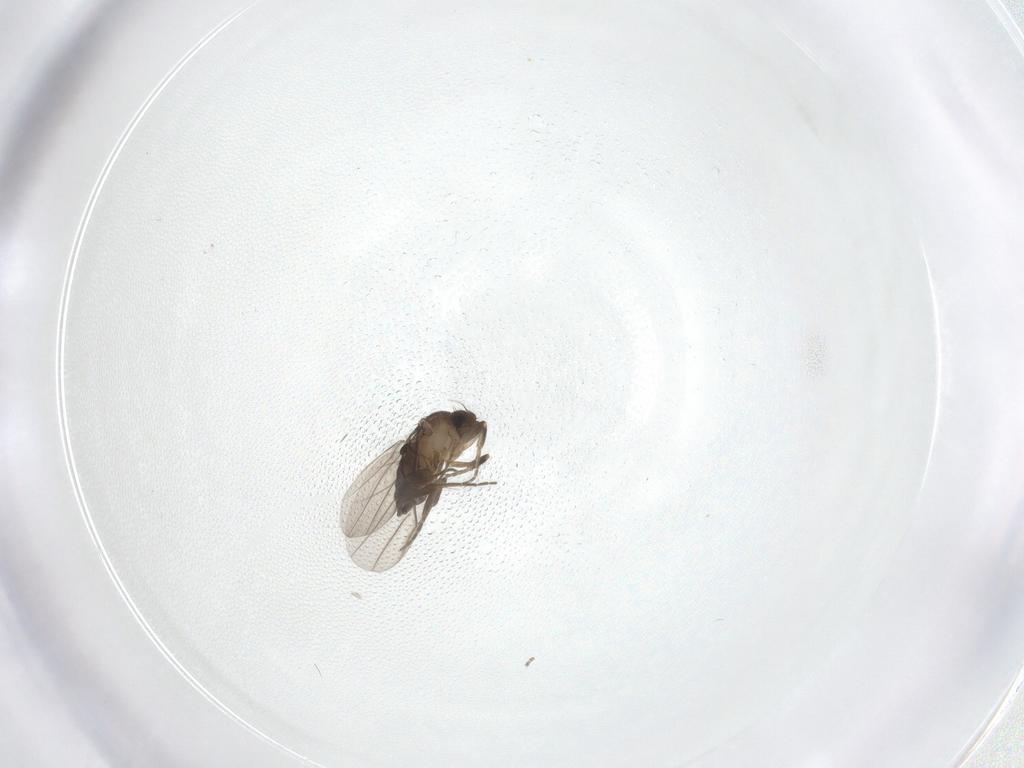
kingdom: Animalia
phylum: Arthropoda
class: Insecta
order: Diptera
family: Phoridae
